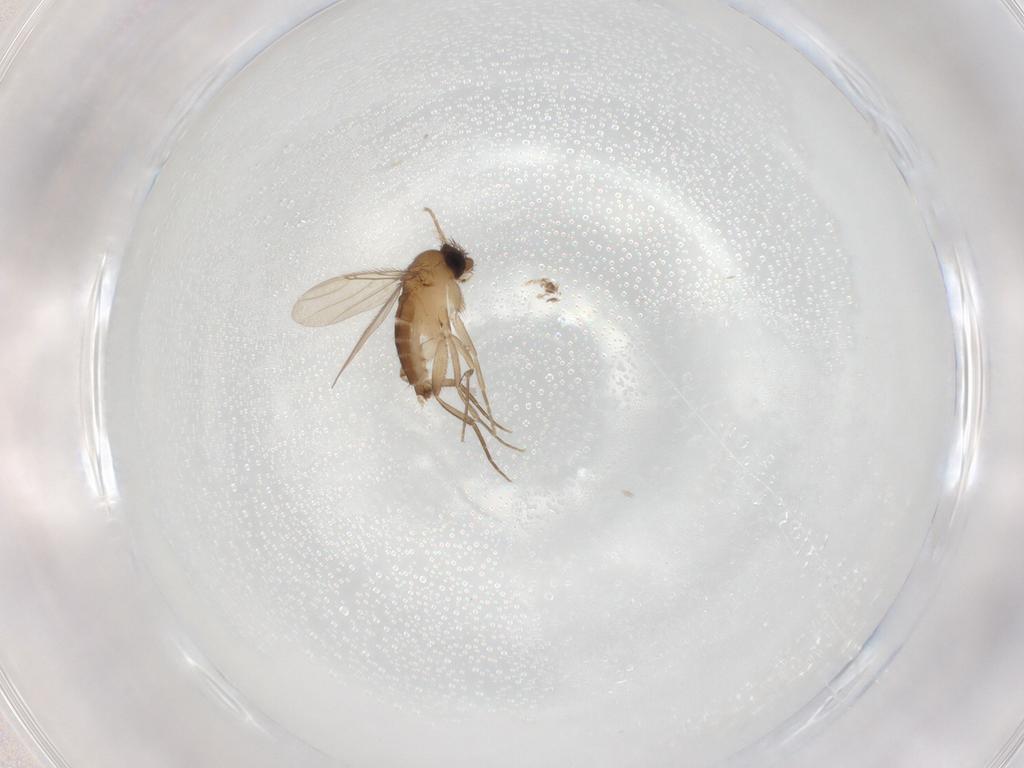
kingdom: Animalia
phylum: Arthropoda
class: Insecta
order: Diptera
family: Phoridae
